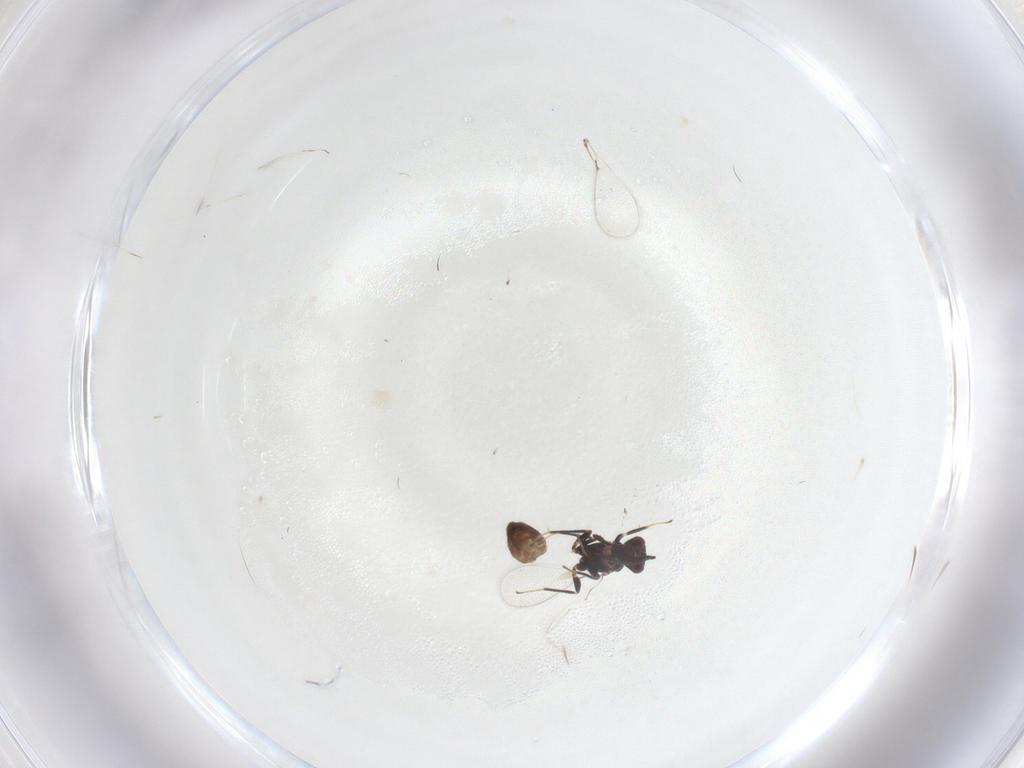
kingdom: Animalia
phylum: Arthropoda
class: Insecta
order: Hymenoptera
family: Mymaridae
